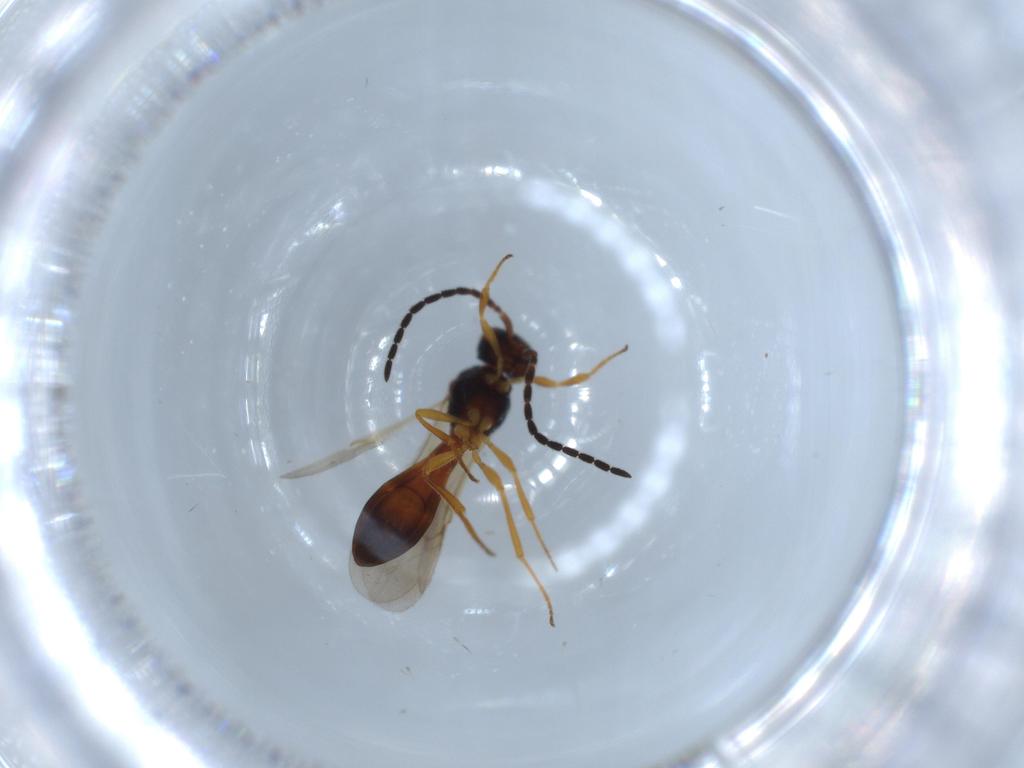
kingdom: Animalia
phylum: Arthropoda
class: Insecta
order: Hymenoptera
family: Scelionidae
